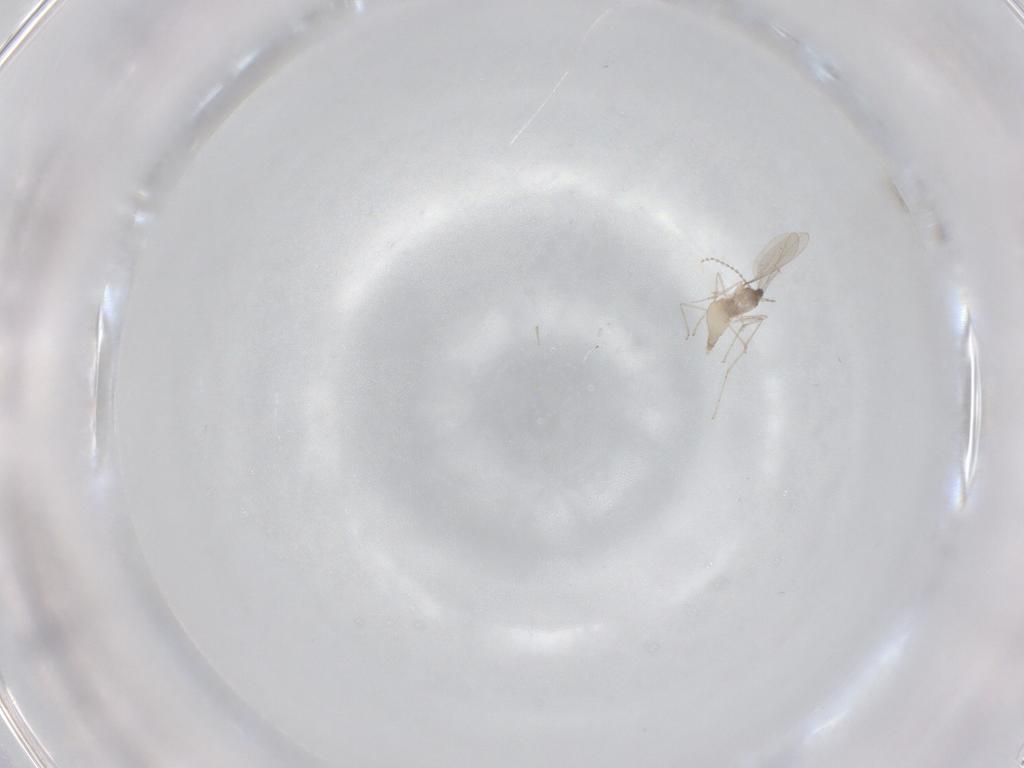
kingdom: Animalia
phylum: Arthropoda
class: Insecta
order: Diptera
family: Cecidomyiidae
